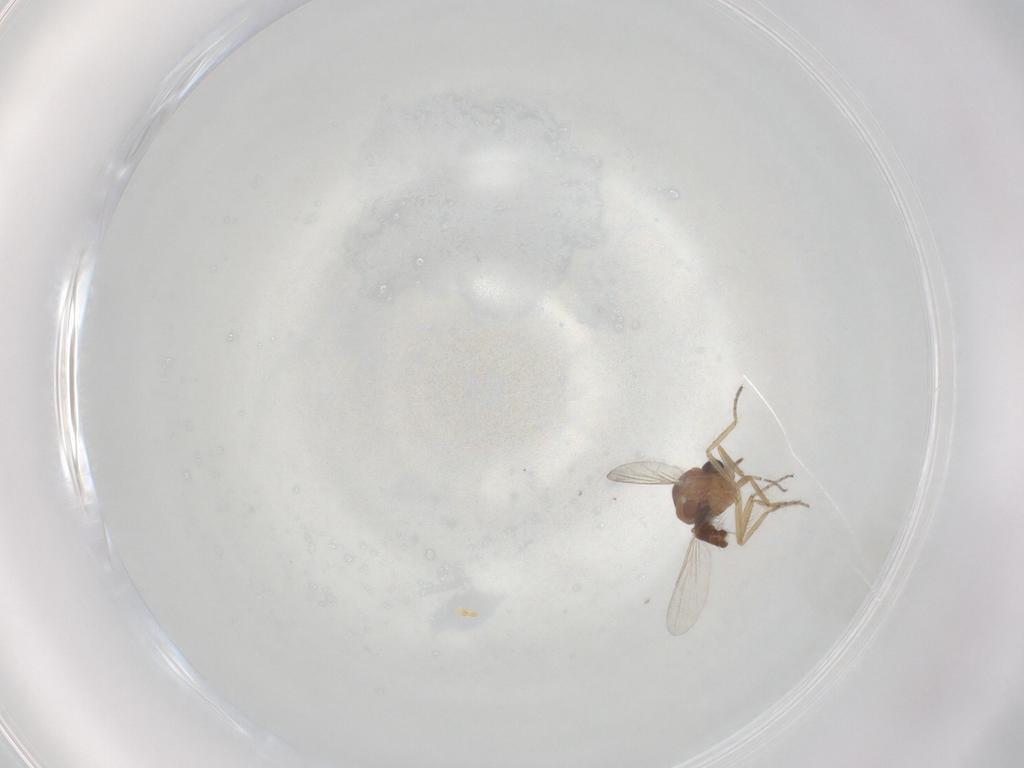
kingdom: Animalia
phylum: Arthropoda
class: Insecta
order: Diptera
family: Ceratopogonidae
